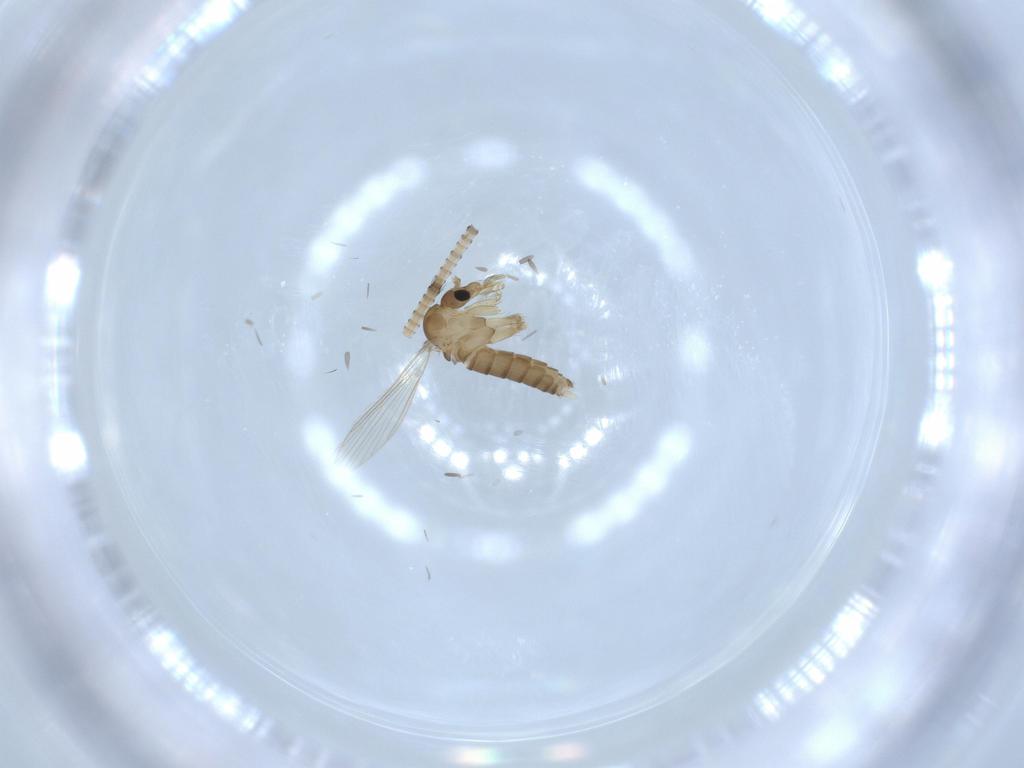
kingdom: Animalia
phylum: Arthropoda
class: Insecta
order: Diptera
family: Psychodidae
